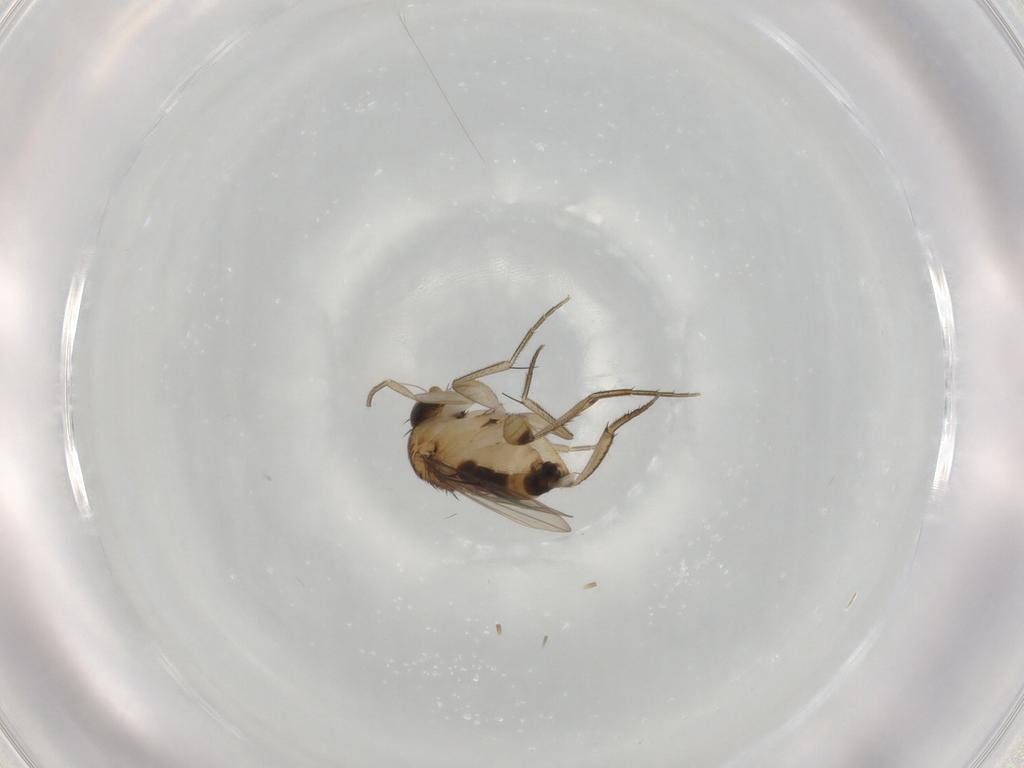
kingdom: Animalia
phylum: Arthropoda
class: Insecta
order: Diptera
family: Phoridae
